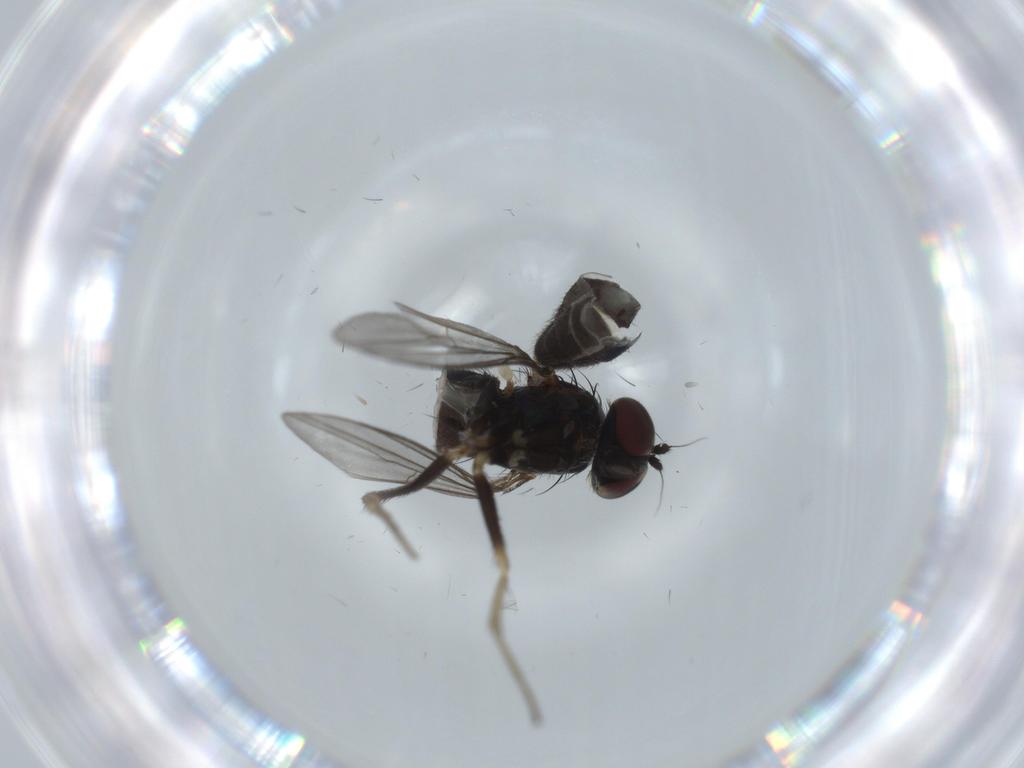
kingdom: Animalia
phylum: Arthropoda
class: Insecta
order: Diptera
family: Dolichopodidae
